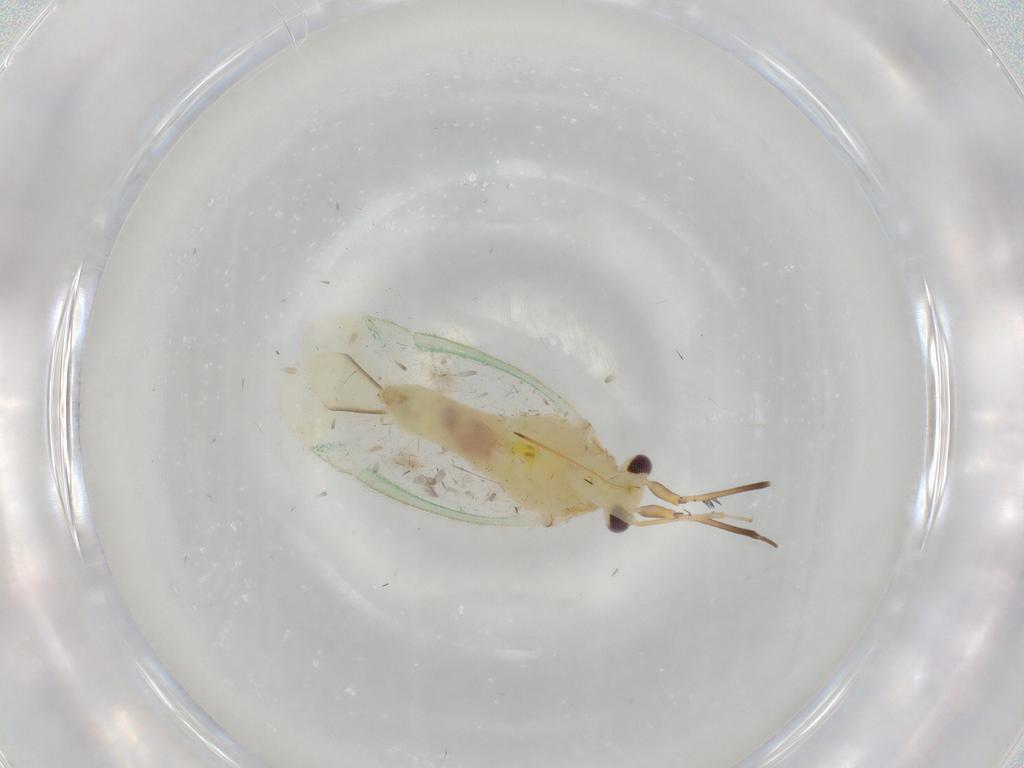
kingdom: Animalia
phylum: Arthropoda
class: Insecta
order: Hemiptera
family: Miridae
